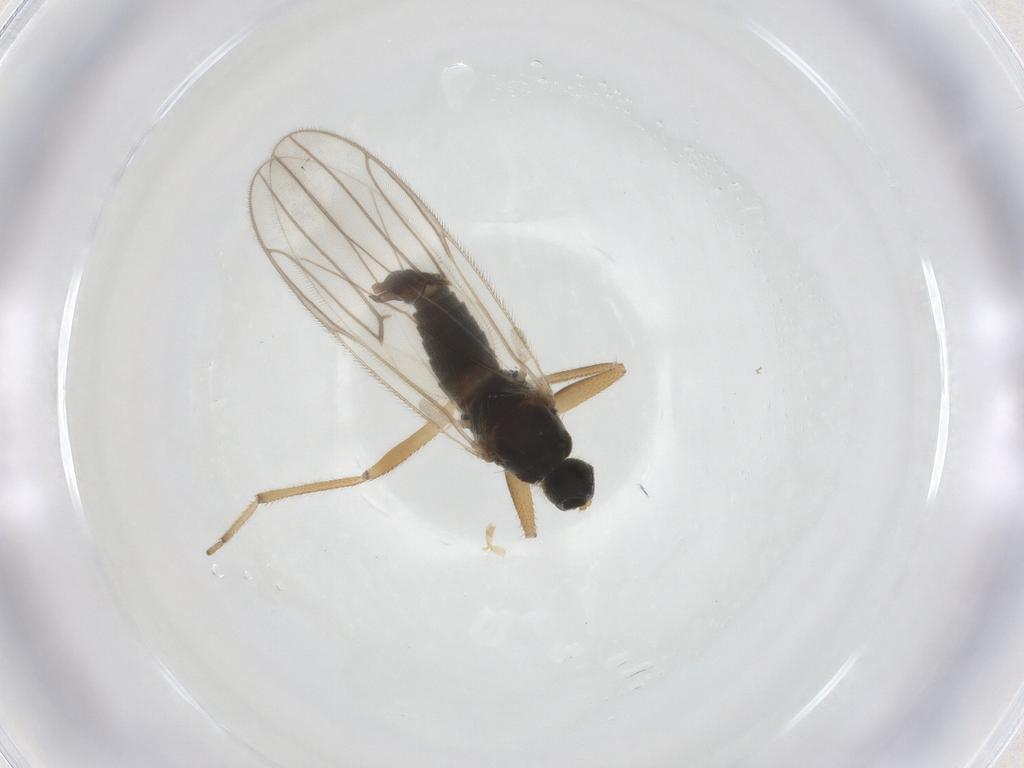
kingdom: Animalia
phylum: Arthropoda
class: Insecta
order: Diptera
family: Hybotidae
